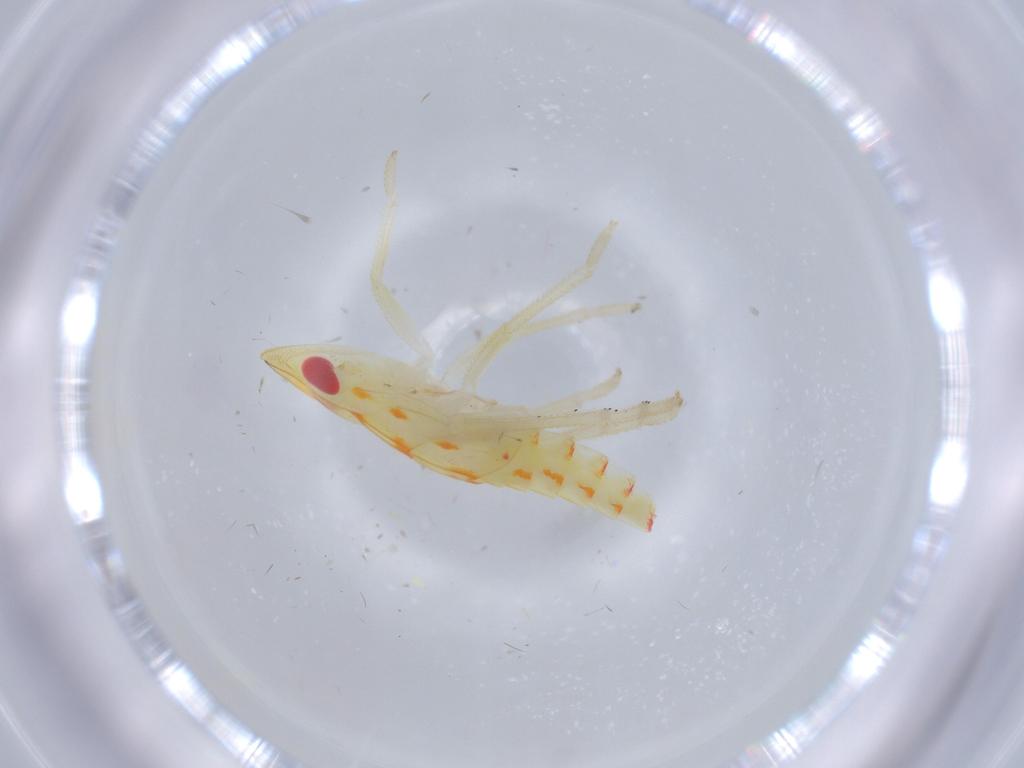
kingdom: Animalia
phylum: Arthropoda
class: Insecta
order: Hemiptera
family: Tropiduchidae
